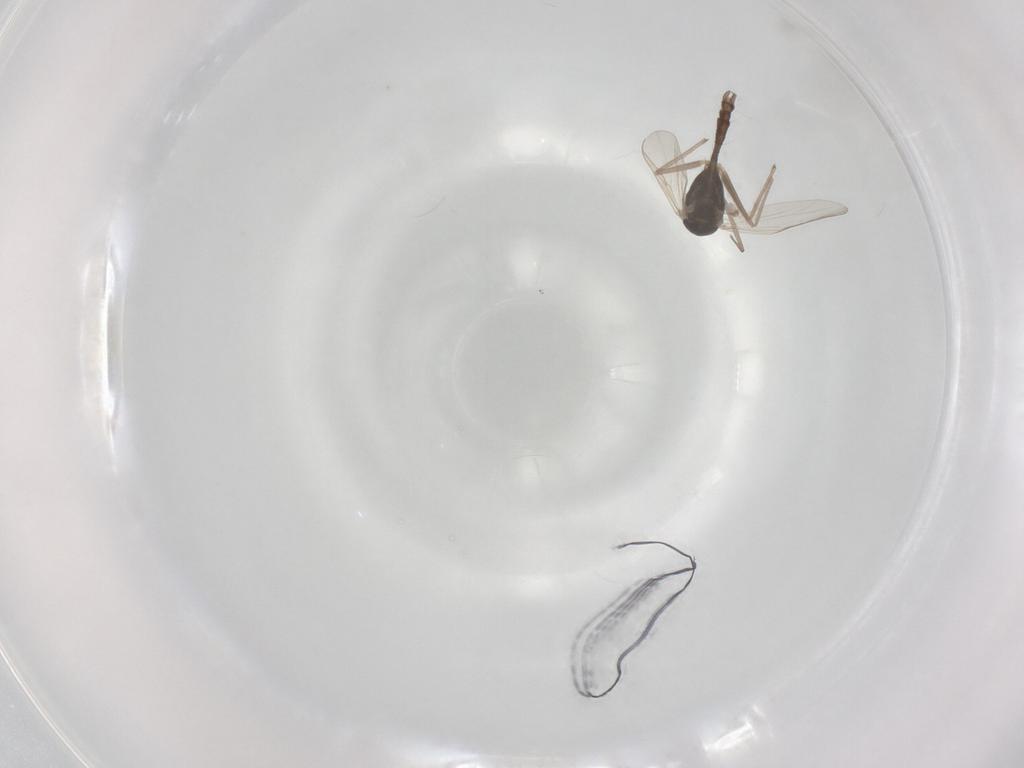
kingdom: Animalia
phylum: Arthropoda
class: Insecta
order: Diptera
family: Chironomidae
